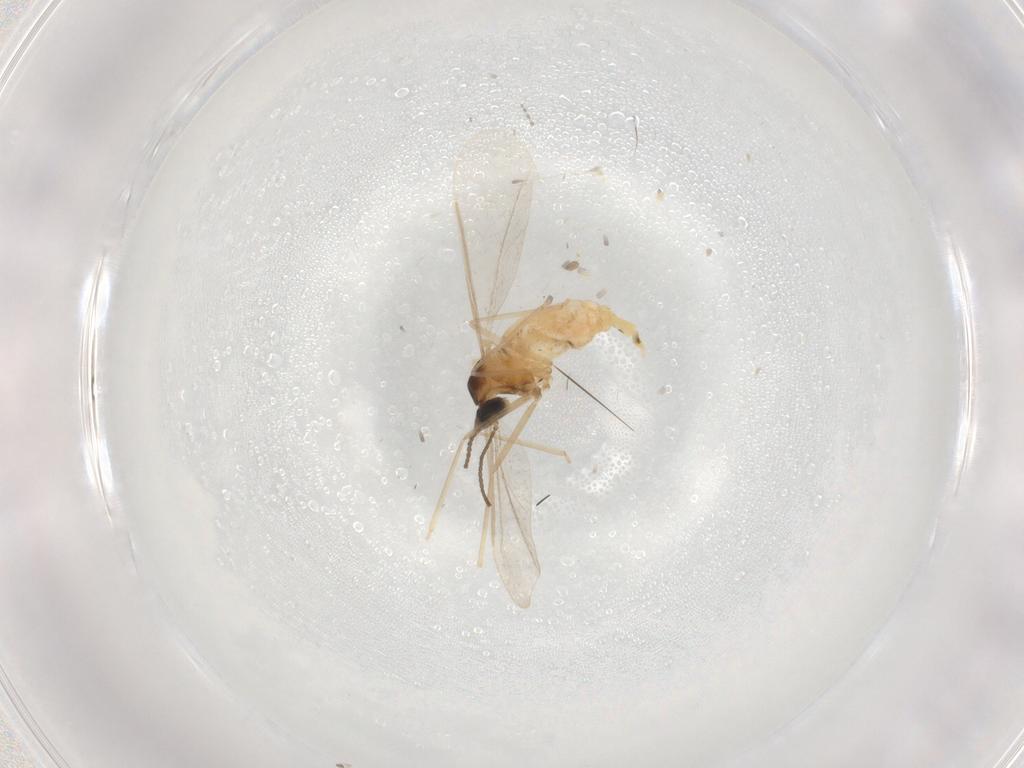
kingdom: Animalia
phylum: Arthropoda
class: Insecta
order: Diptera
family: Cecidomyiidae
